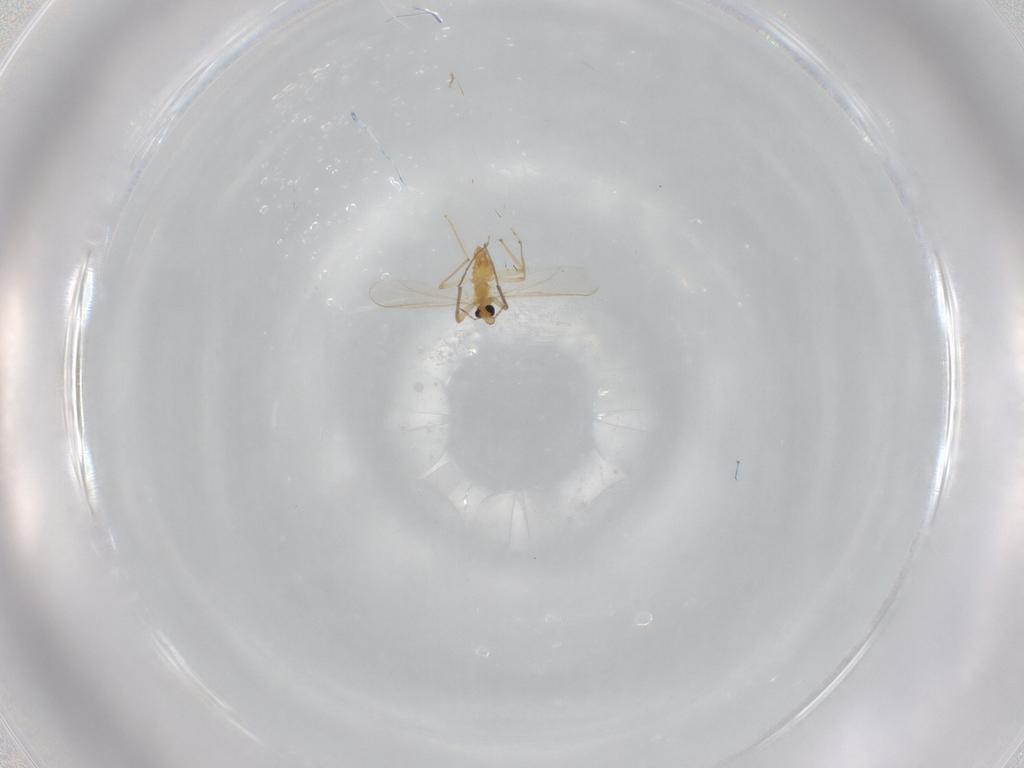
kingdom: Animalia
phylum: Arthropoda
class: Insecta
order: Diptera
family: Chironomidae
